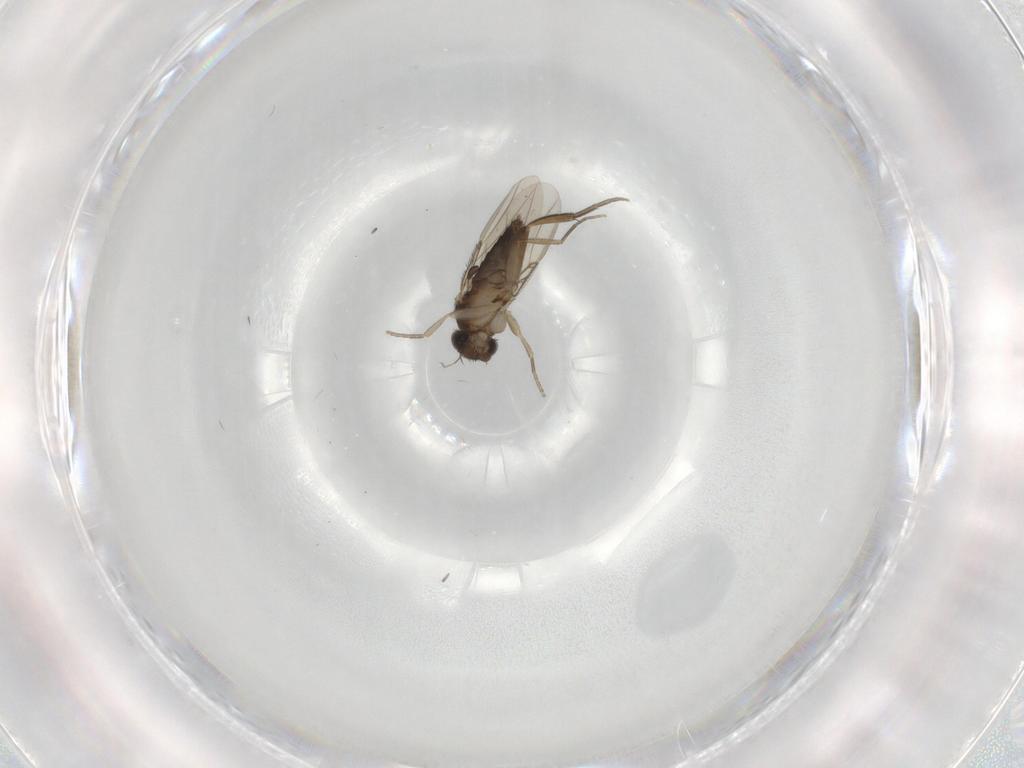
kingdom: Animalia
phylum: Arthropoda
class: Insecta
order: Diptera
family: Phoridae
